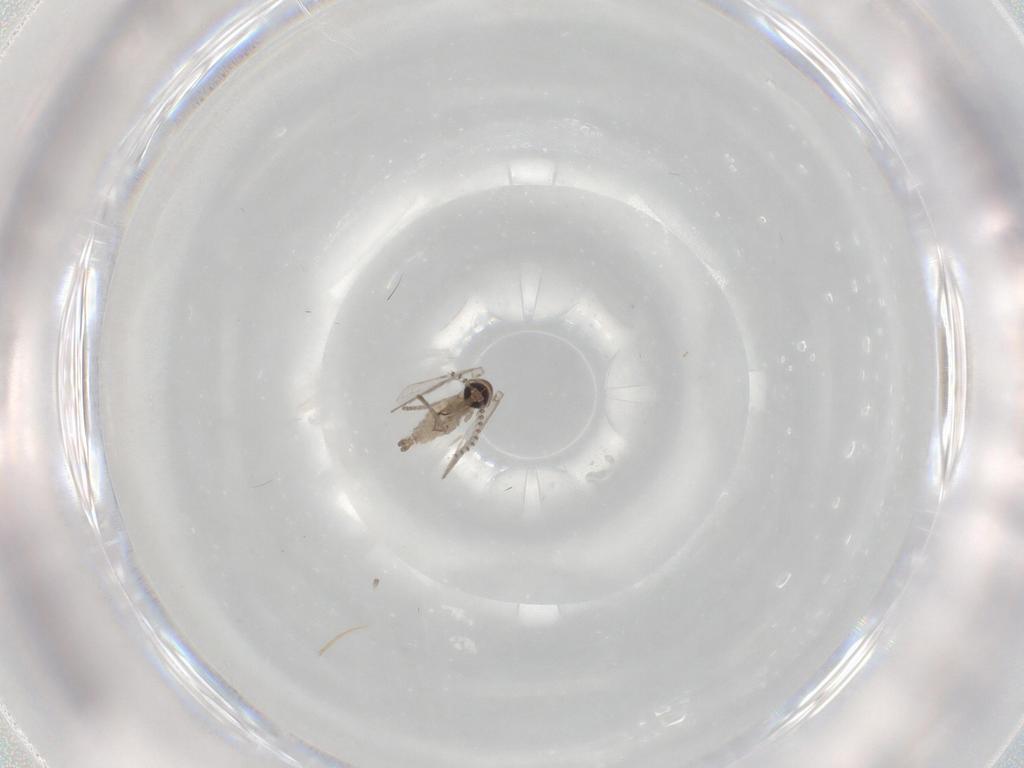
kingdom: Animalia
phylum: Arthropoda
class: Insecta
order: Diptera
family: Psychodidae
